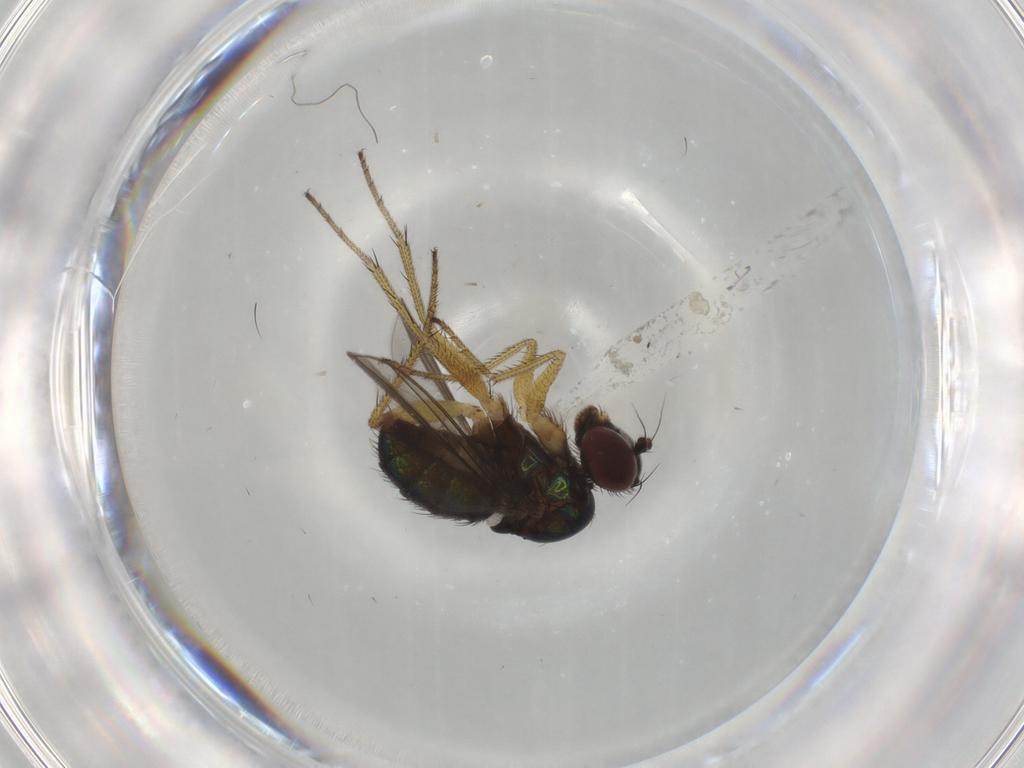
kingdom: Animalia
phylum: Arthropoda
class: Insecta
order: Diptera
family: Dolichopodidae
